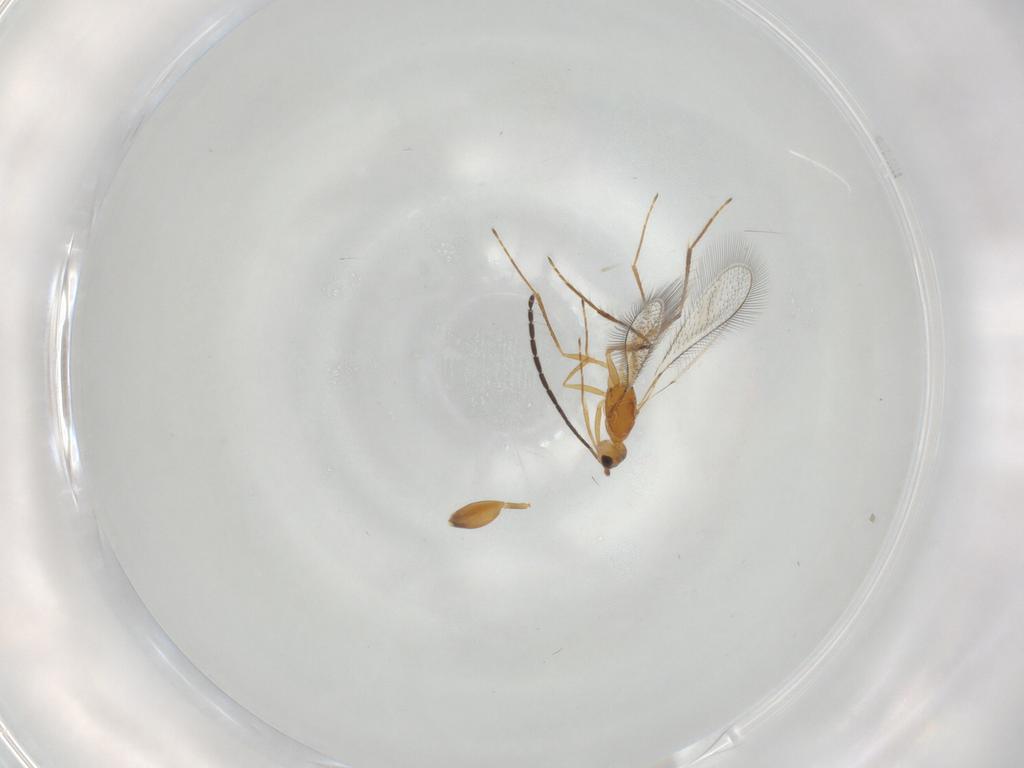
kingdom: Animalia
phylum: Arthropoda
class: Insecta
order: Hymenoptera
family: Mymaridae
